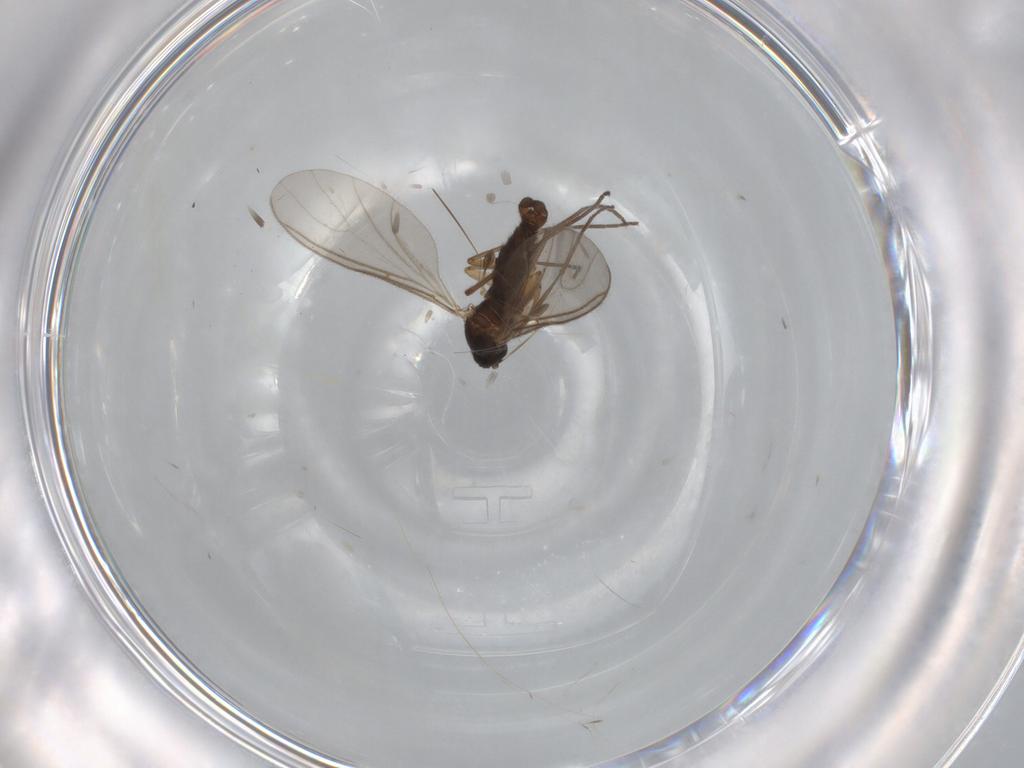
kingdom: Animalia
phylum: Arthropoda
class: Insecta
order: Diptera
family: Sciaridae
